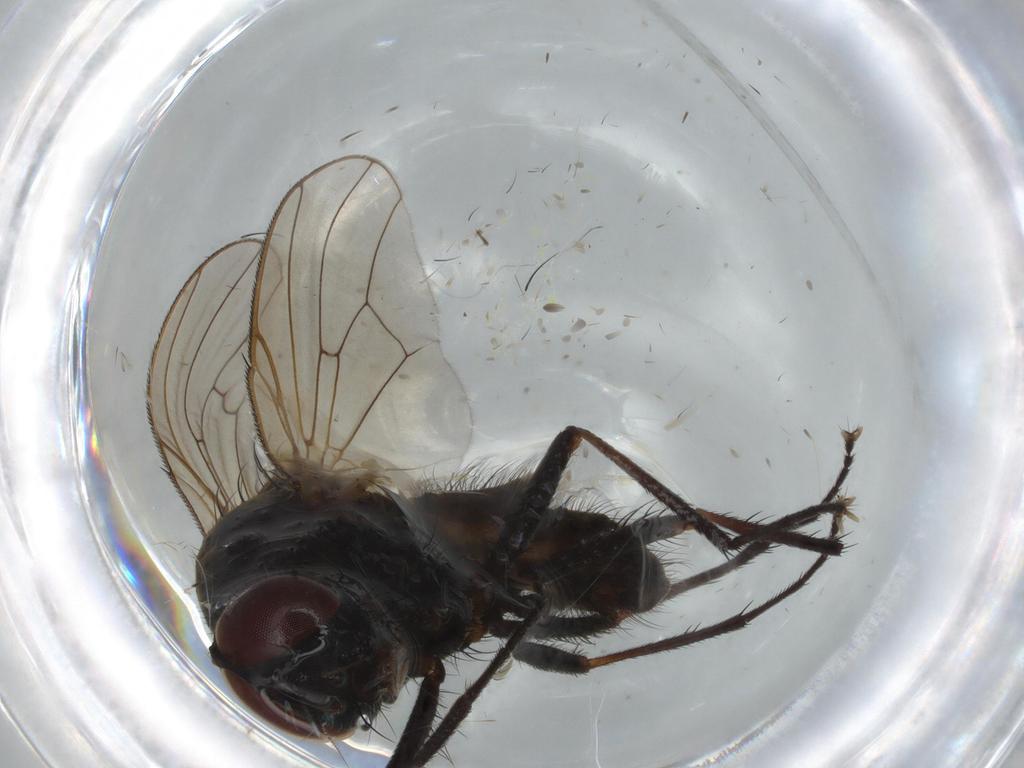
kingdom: Animalia
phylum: Arthropoda
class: Insecta
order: Diptera
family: Anthomyiidae
